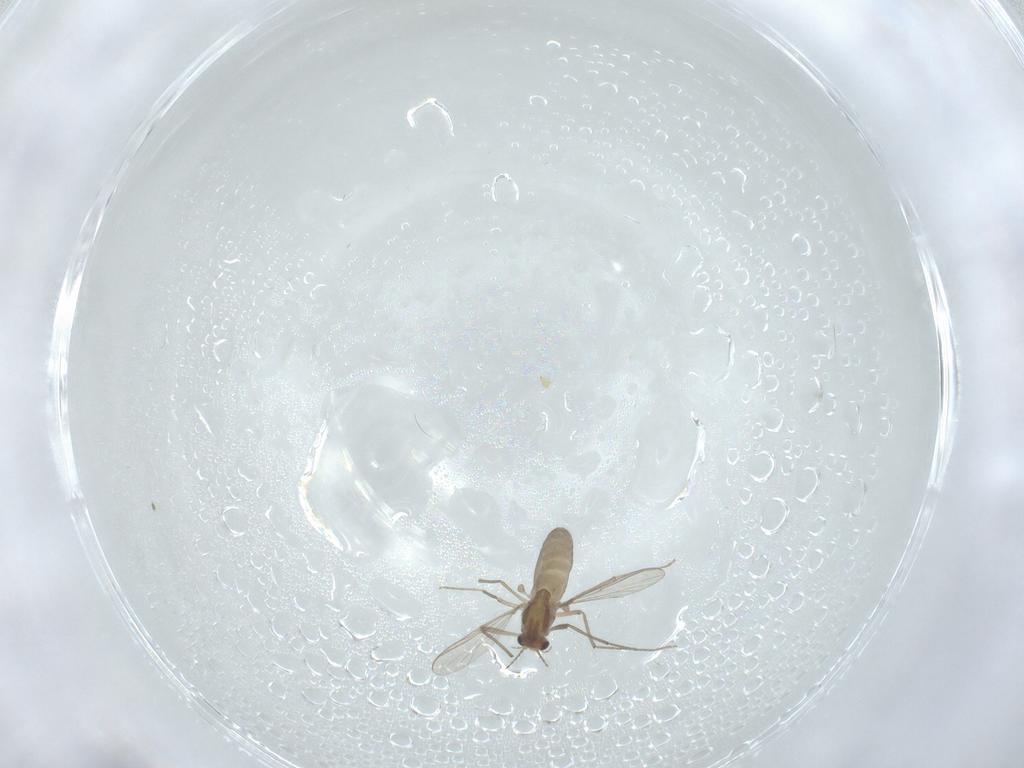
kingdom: Animalia
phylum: Arthropoda
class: Insecta
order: Diptera
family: Chironomidae
